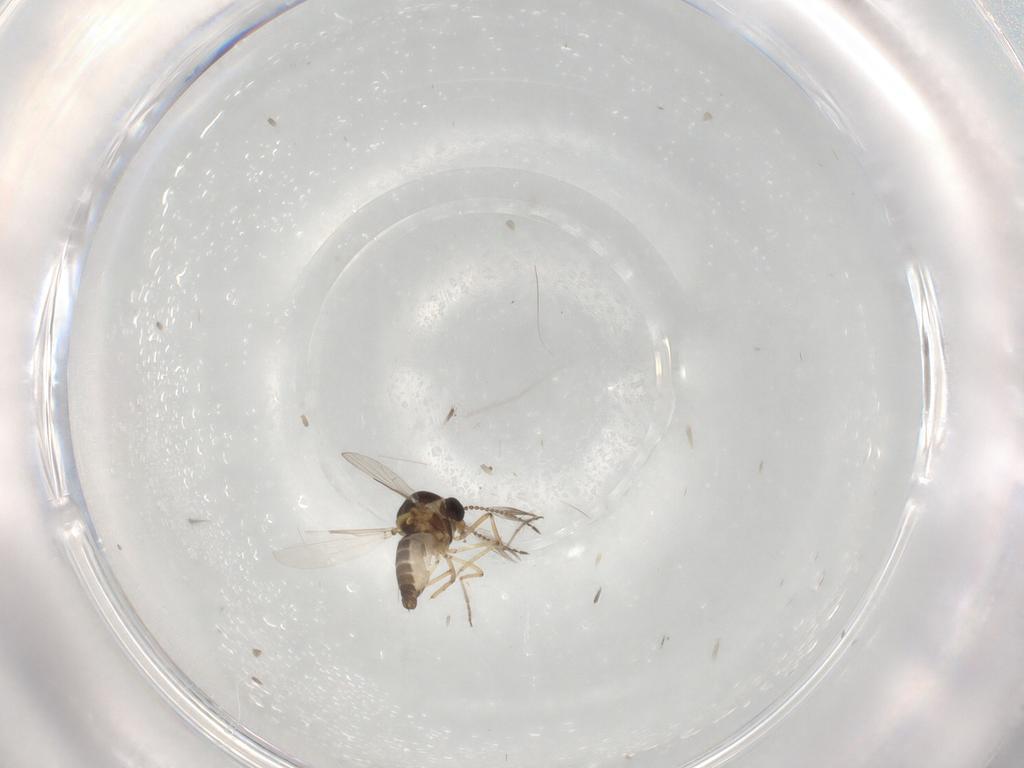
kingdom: Animalia
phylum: Arthropoda
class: Insecta
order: Diptera
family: Ceratopogonidae
